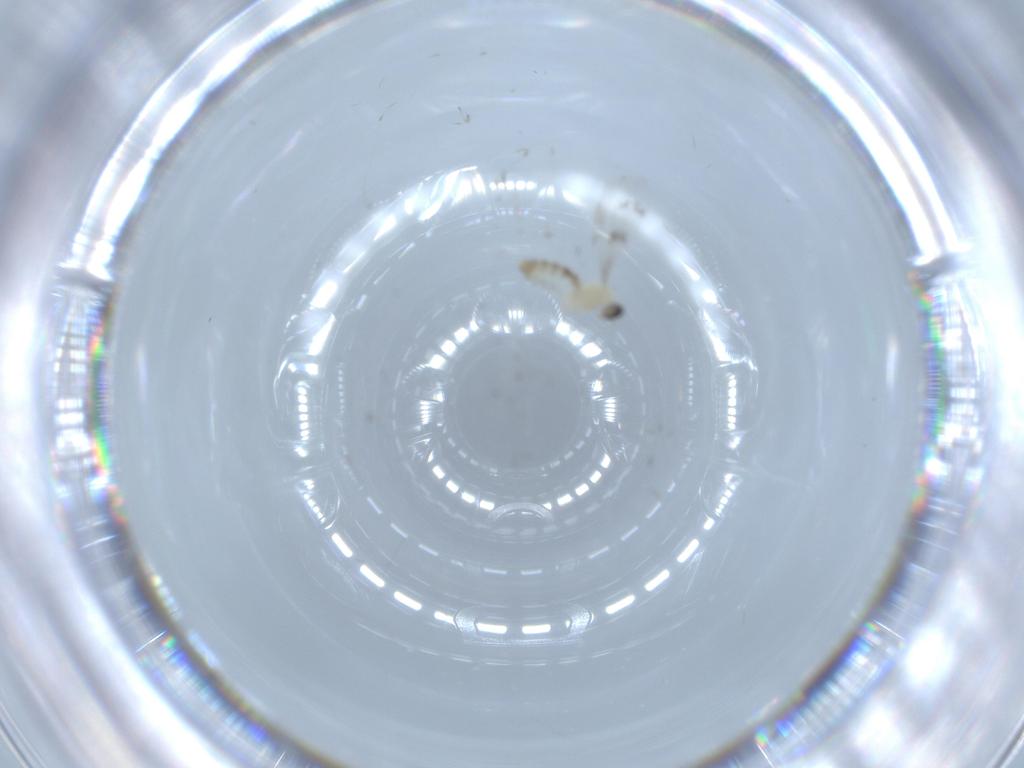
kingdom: Animalia
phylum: Arthropoda
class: Insecta
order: Diptera
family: Cecidomyiidae
